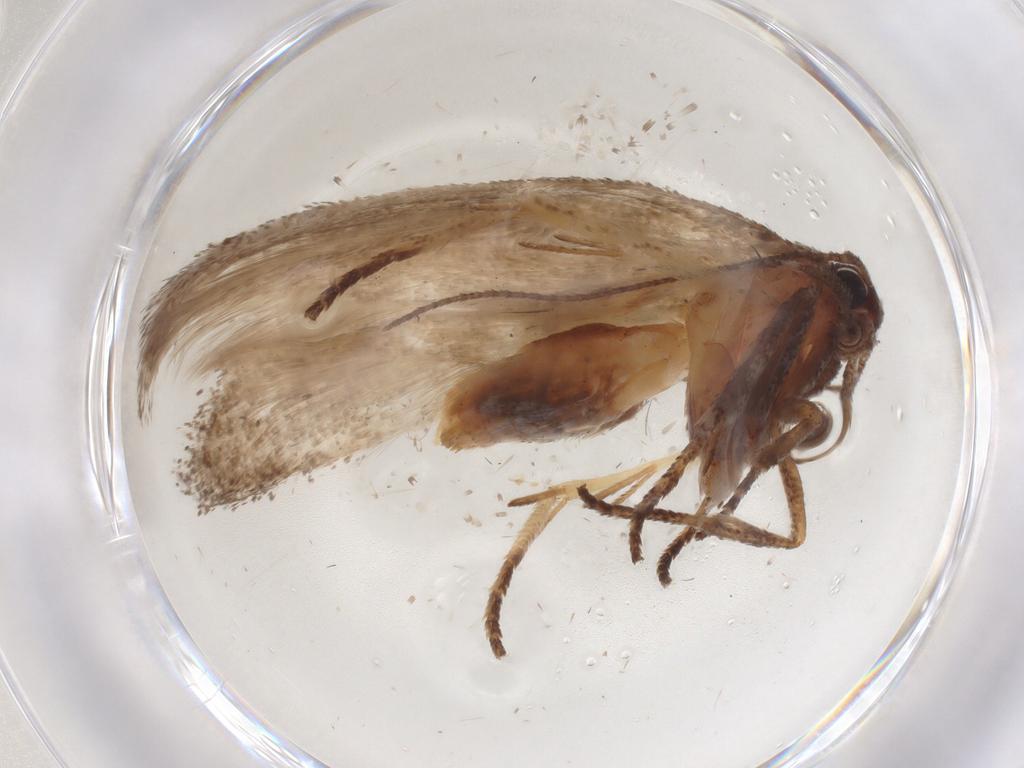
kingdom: Animalia
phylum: Arthropoda
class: Insecta
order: Lepidoptera
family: Cosmopterigidae
